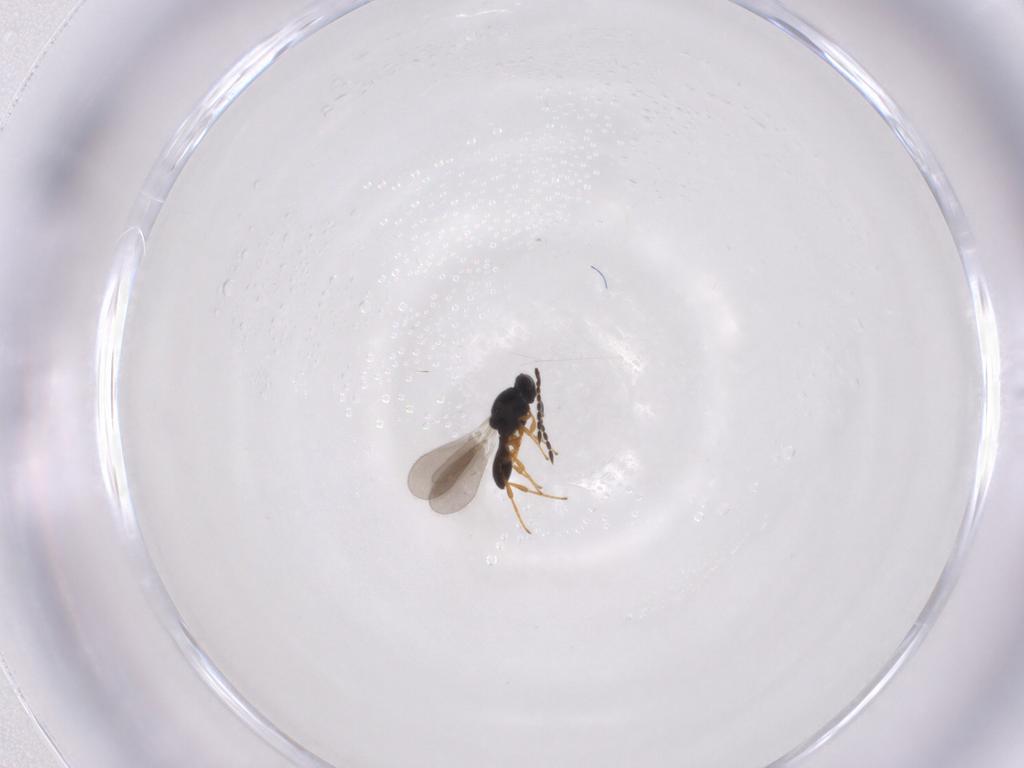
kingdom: Animalia
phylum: Arthropoda
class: Insecta
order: Hymenoptera
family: Platygastridae
